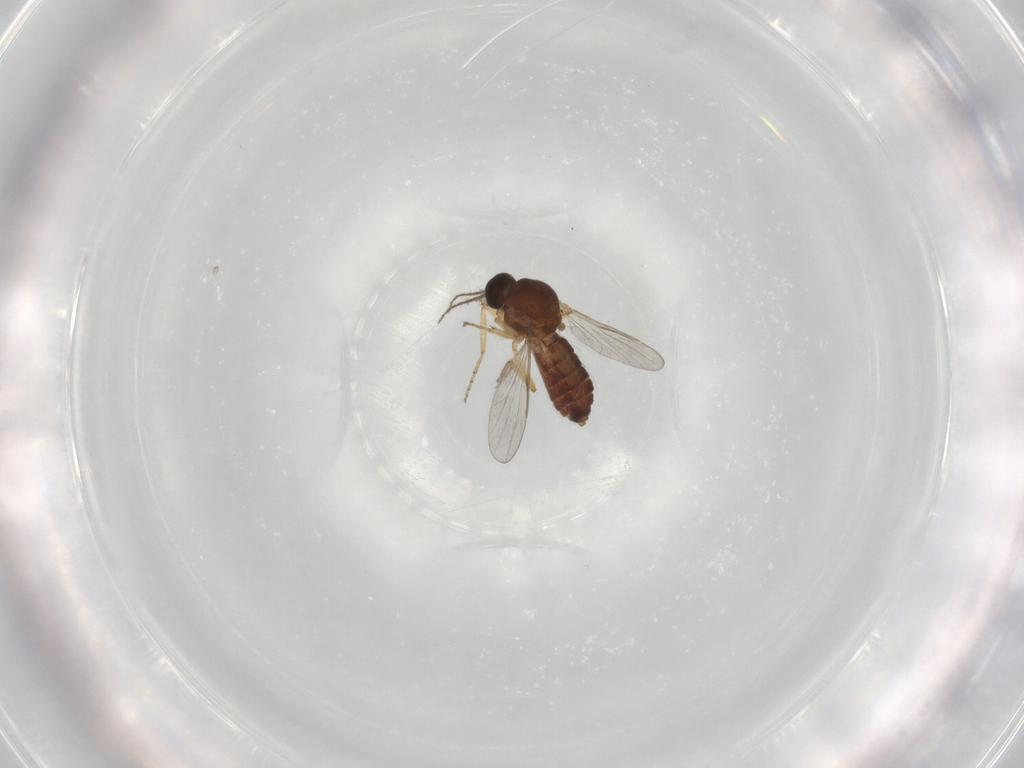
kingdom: Animalia
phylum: Arthropoda
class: Insecta
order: Diptera
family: Ceratopogonidae
